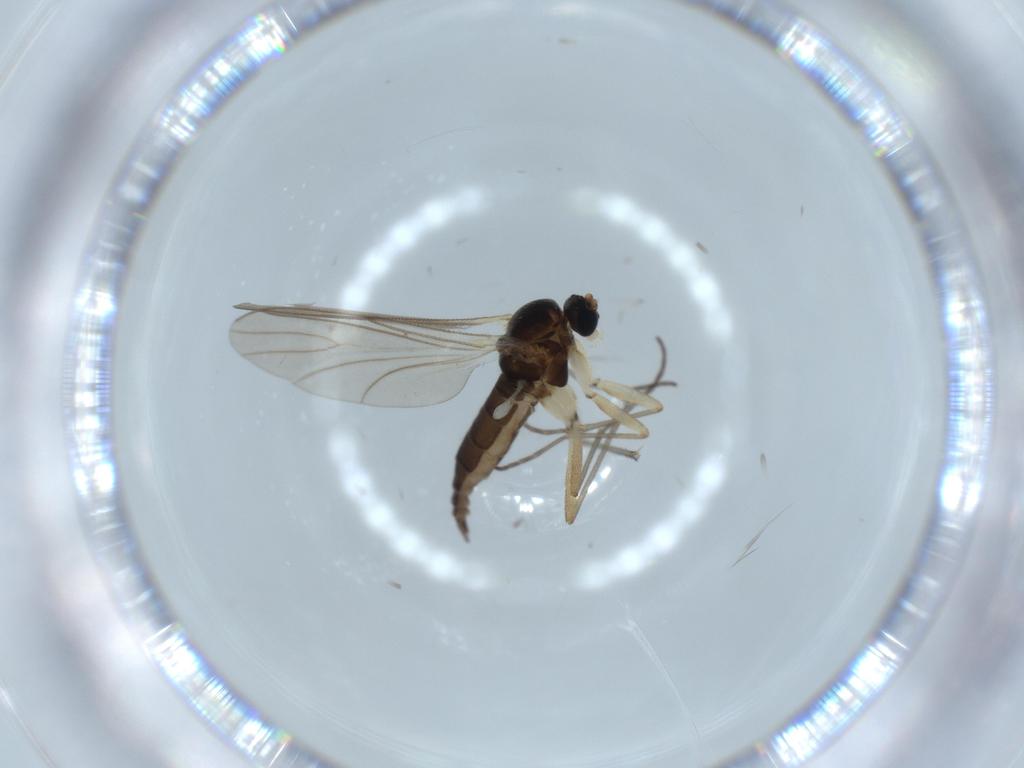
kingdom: Animalia
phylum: Arthropoda
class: Insecta
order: Diptera
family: Sciaridae
